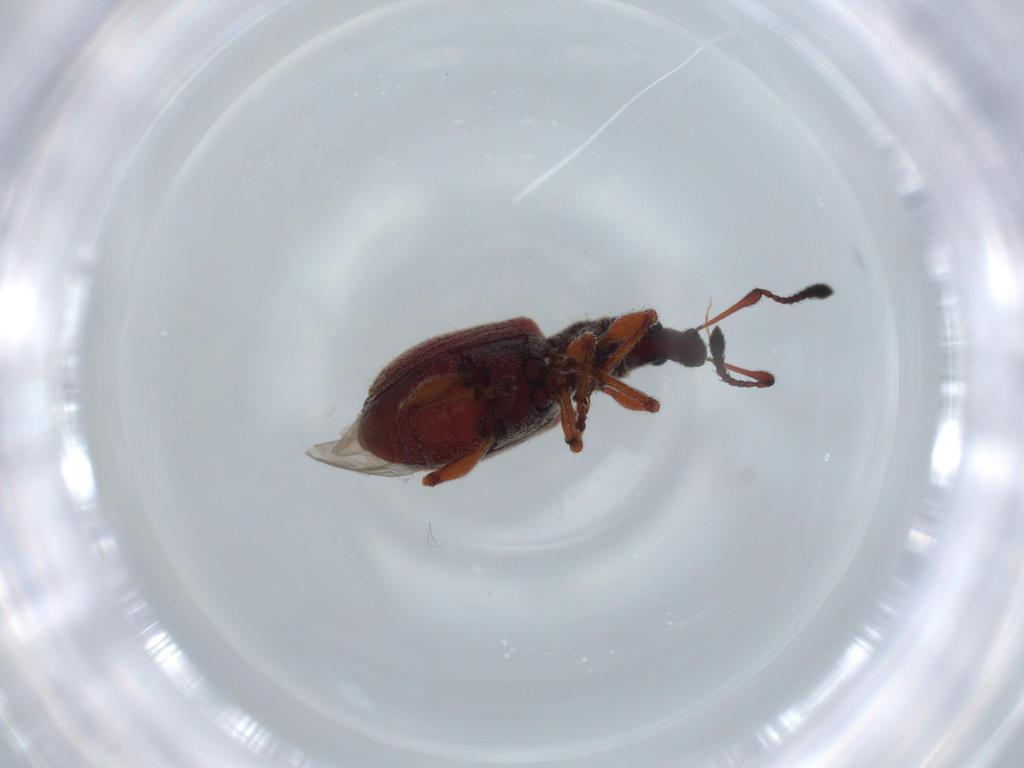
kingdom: Animalia
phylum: Arthropoda
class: Insecta
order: Coleoptera
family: Curculionidae
